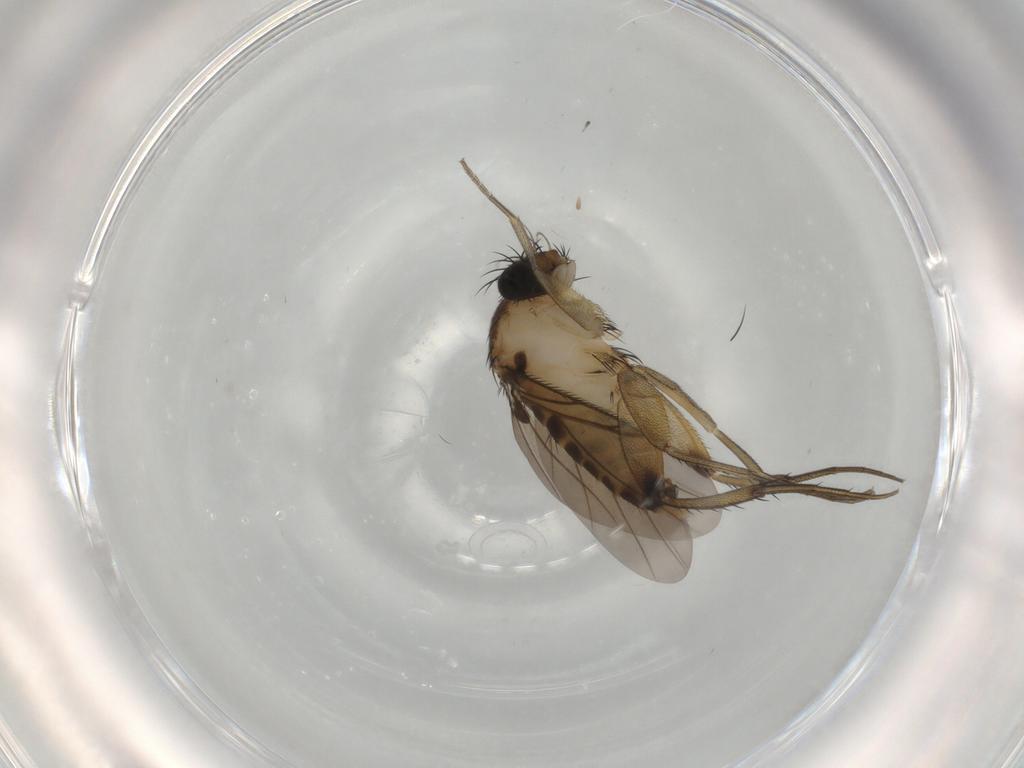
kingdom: Animalia
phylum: Arthropoda
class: Insecta
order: Diptera
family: Phoridae
